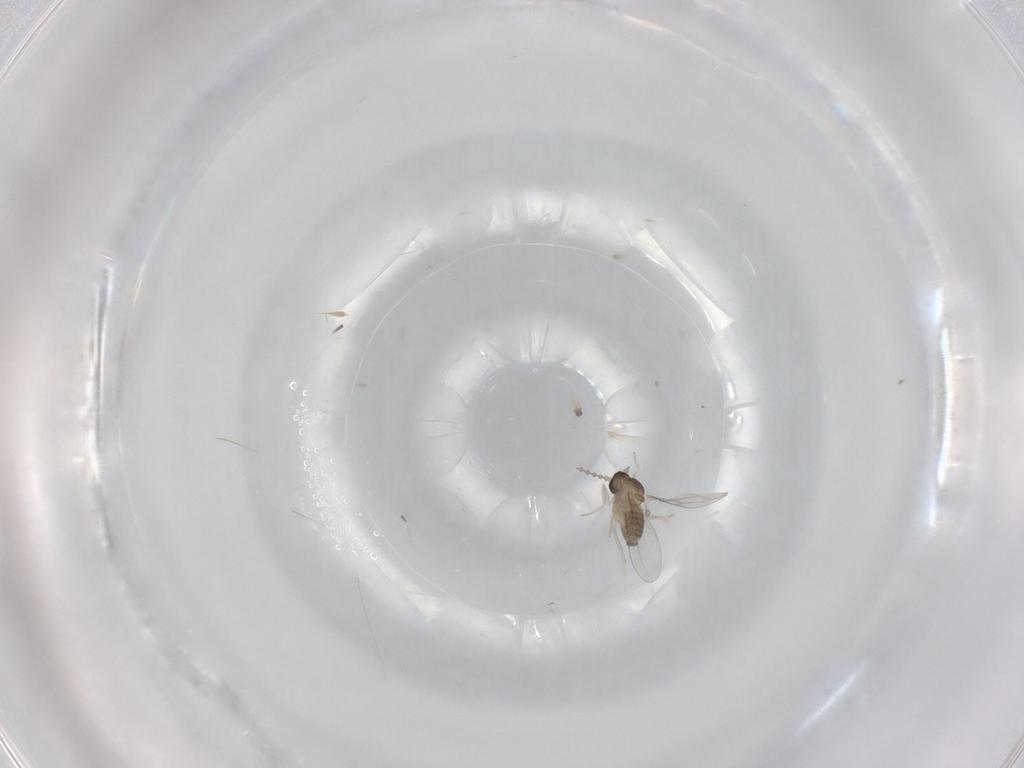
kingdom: Animalia
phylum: Arthropoda
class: Insecta
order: Diptera
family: Cecidomyiidae
